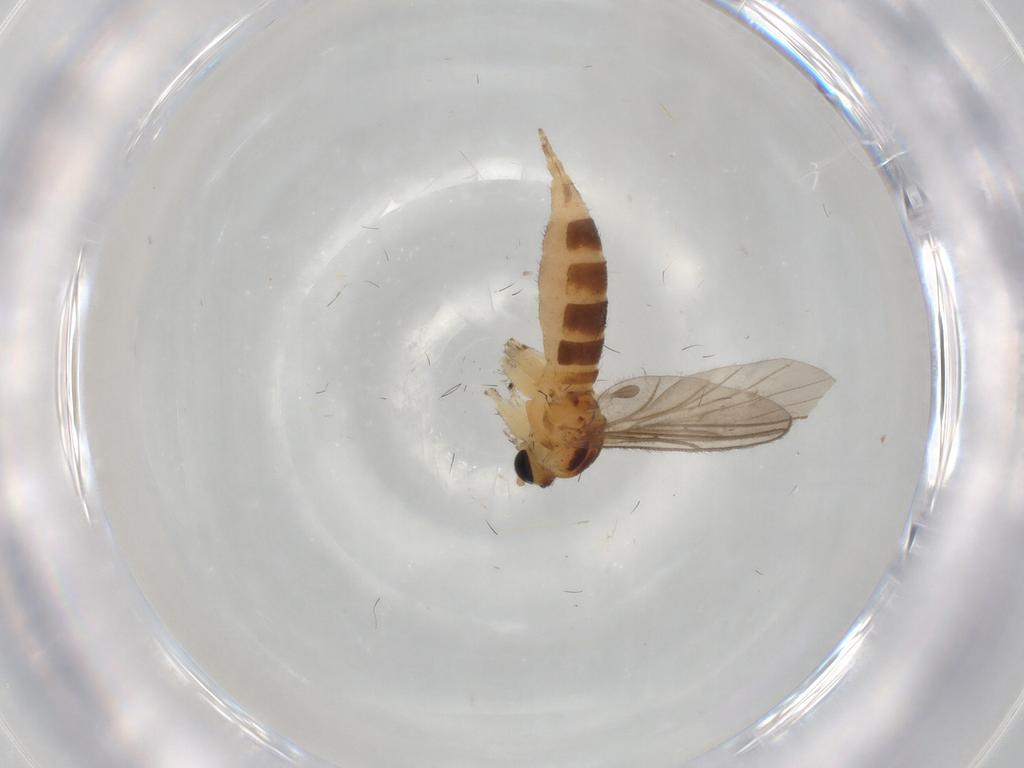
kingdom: Animalia
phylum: Arthropoda
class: Insecta
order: Diptera
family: Sciaridae
